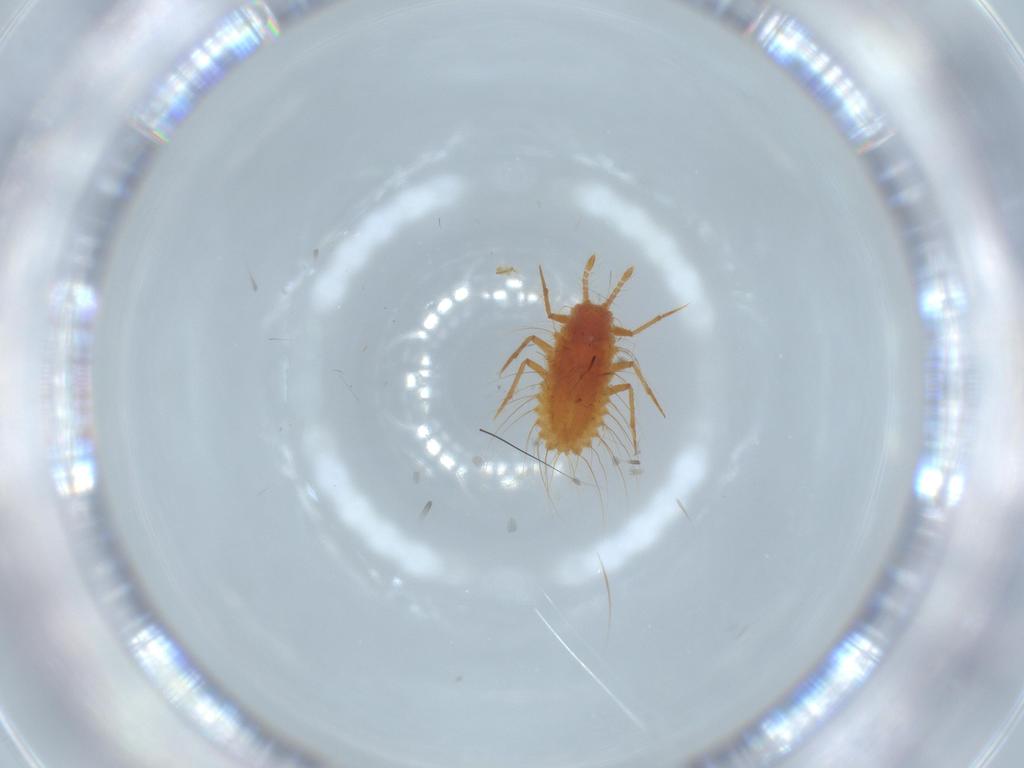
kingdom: Animalia
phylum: Arthropoda
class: Insecta
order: Hemiptera
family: Monophlebidae
